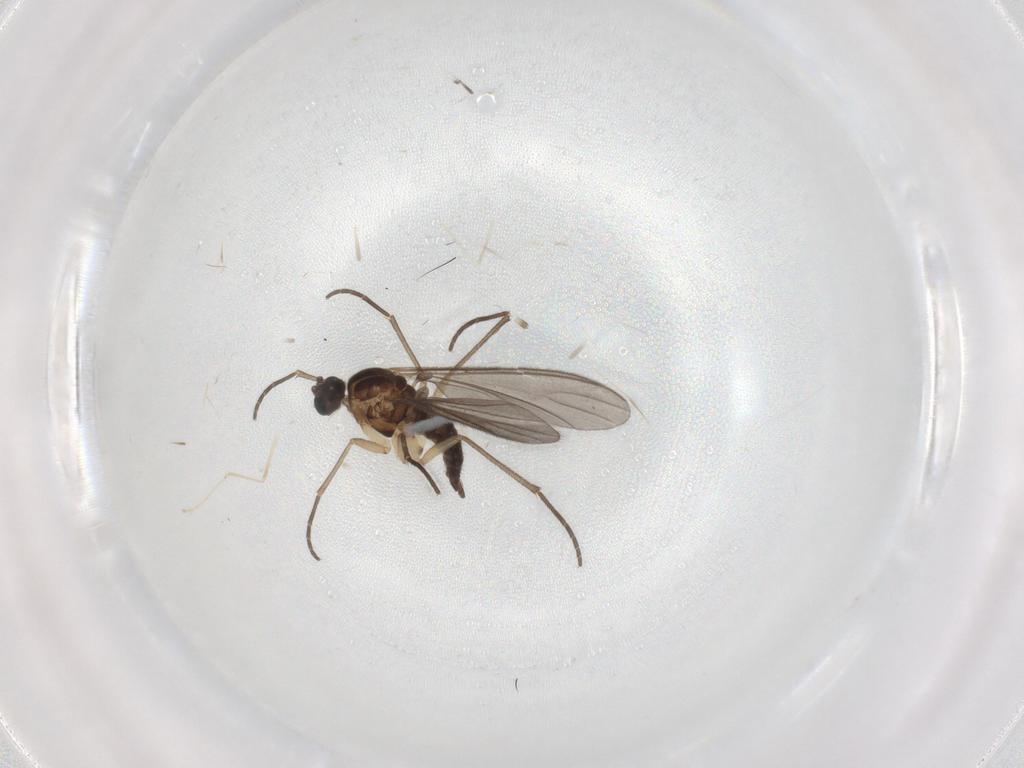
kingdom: Animalia
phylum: Arthropoda
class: Insecta
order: Diptera
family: Sciaridae
